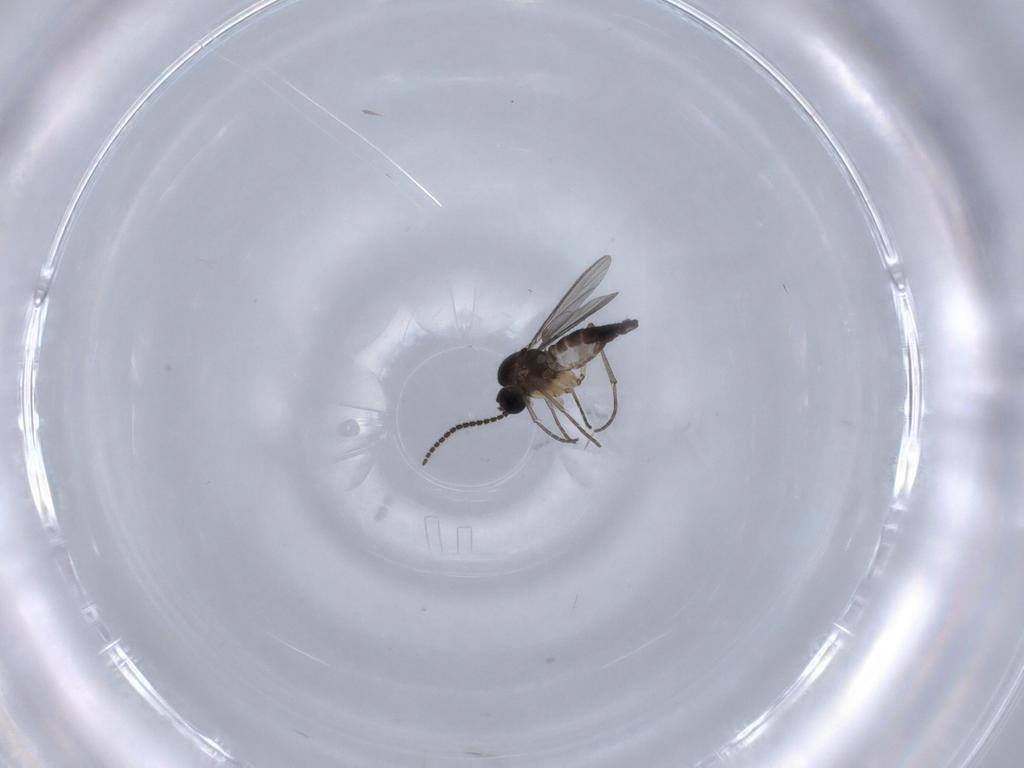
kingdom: Animalia
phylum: Arthropoda
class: Insecta
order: Diptera
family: Sciaridae
